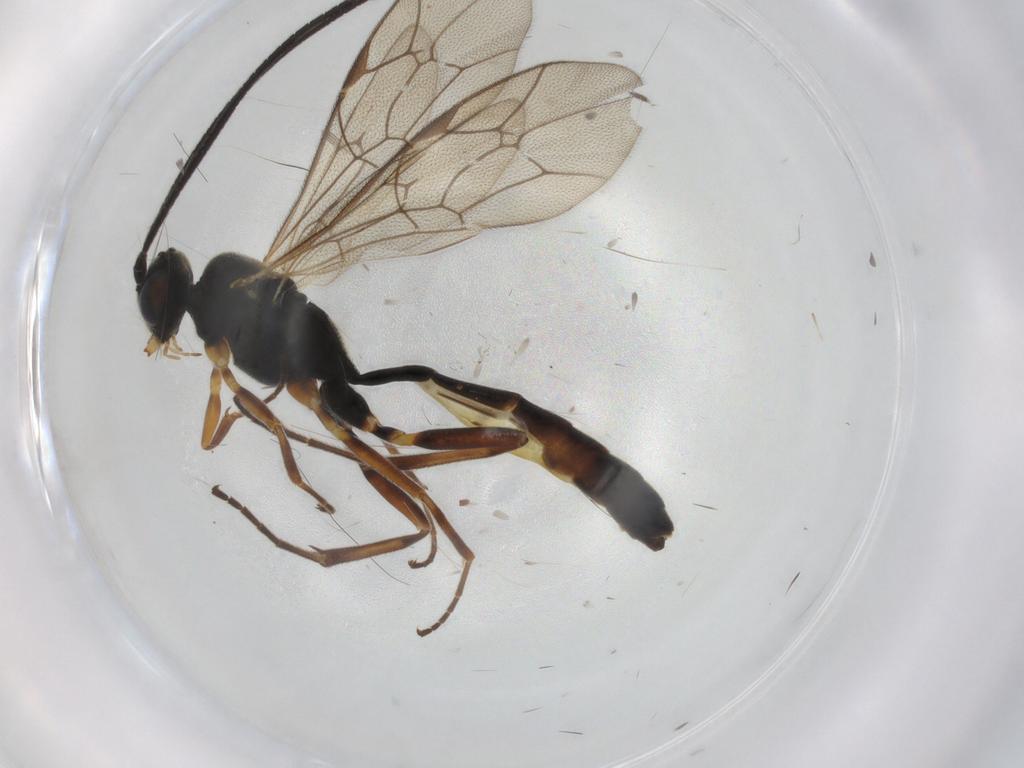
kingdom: Animalia
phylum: Arthropoda
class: Insecta
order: Hymenoptera
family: Ichneumonidae
